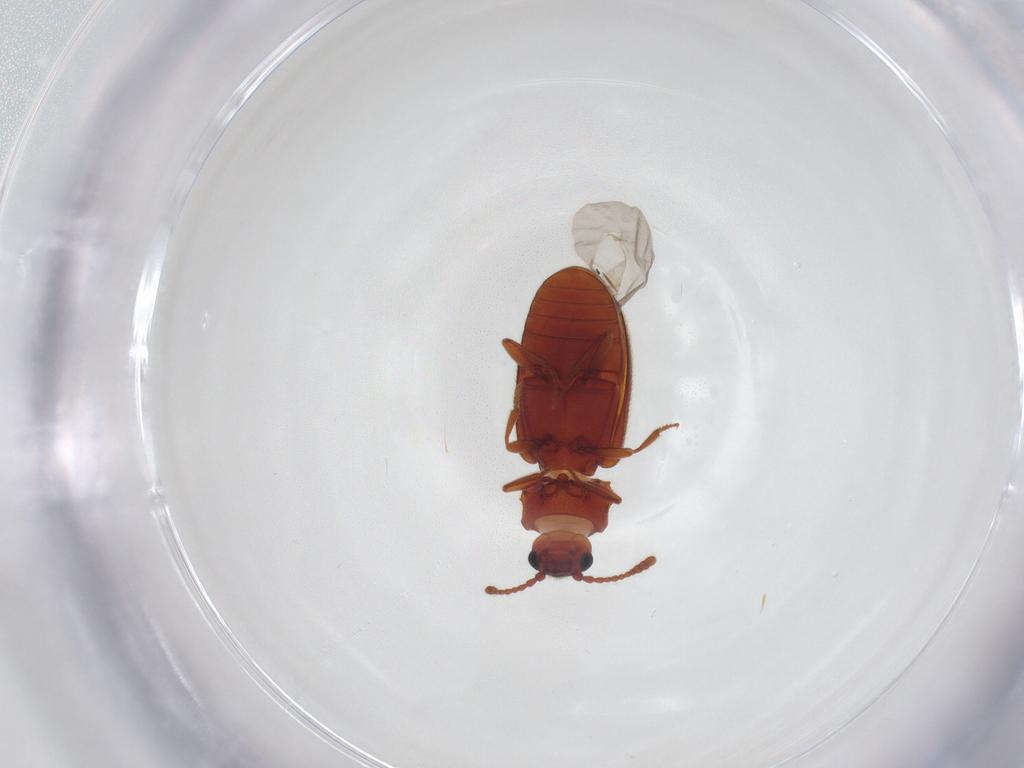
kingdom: Animalia
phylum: Arthropoda
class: Insecta
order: Coleoptera
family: Cryptophagidae
